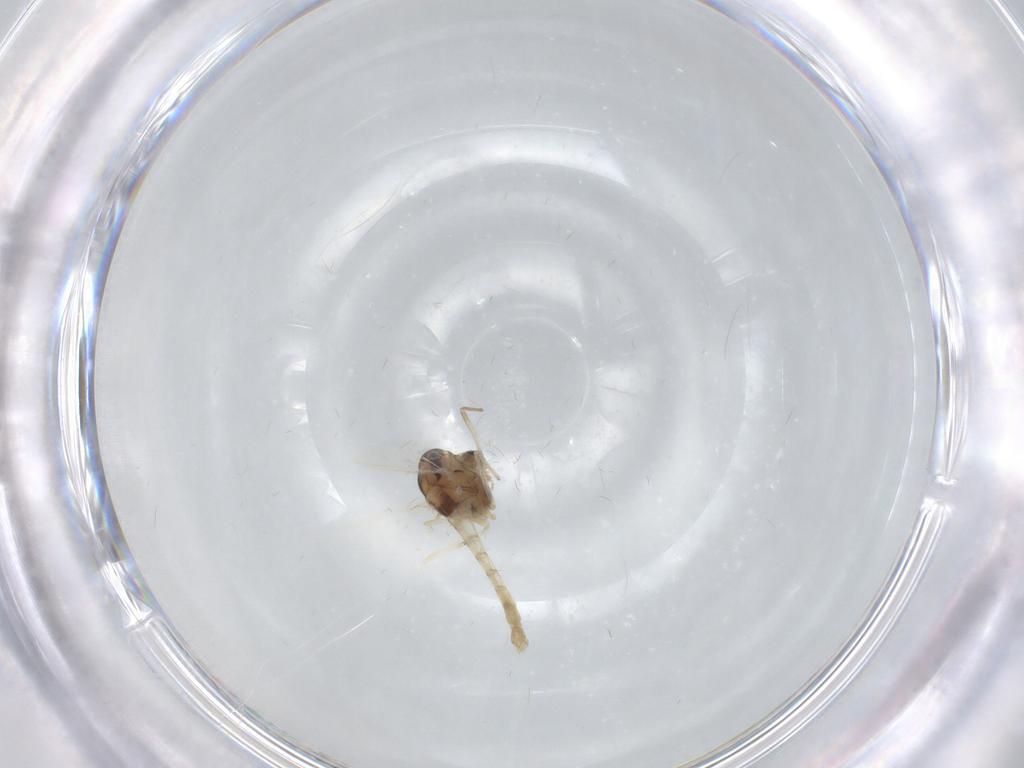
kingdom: Animalia
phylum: Arthropoda
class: Insecta
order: Diptera
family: Chironomidae
